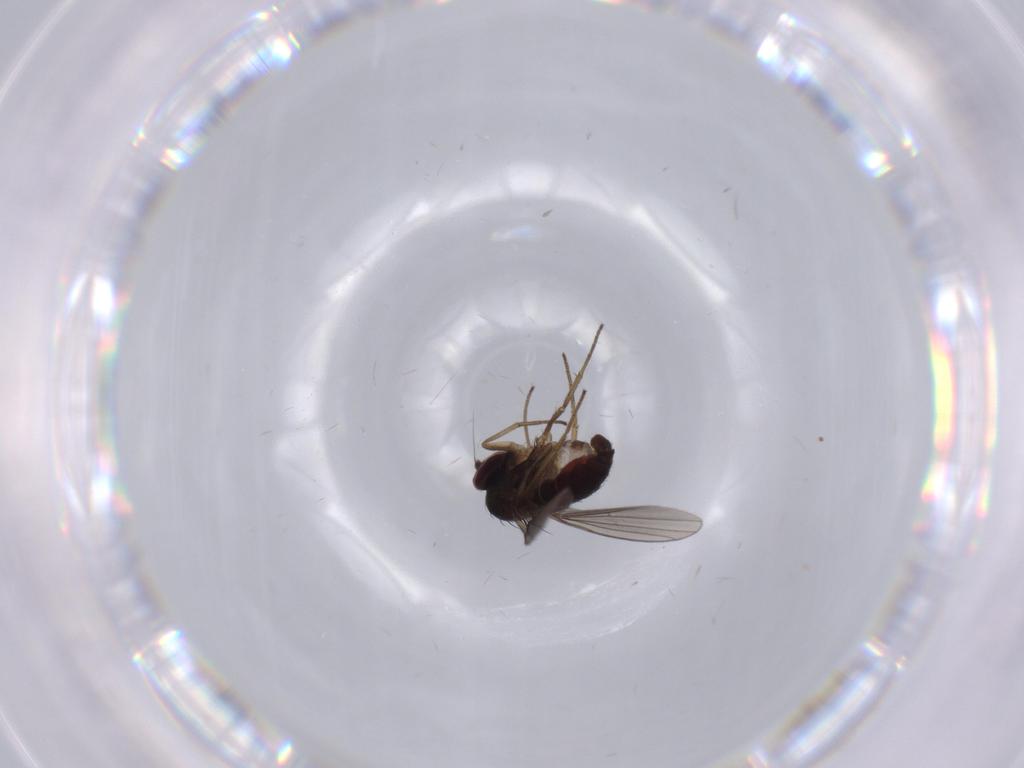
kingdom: Animalia
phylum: Arthropoda
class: Insecta
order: Diptera
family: Dolichopodidae
